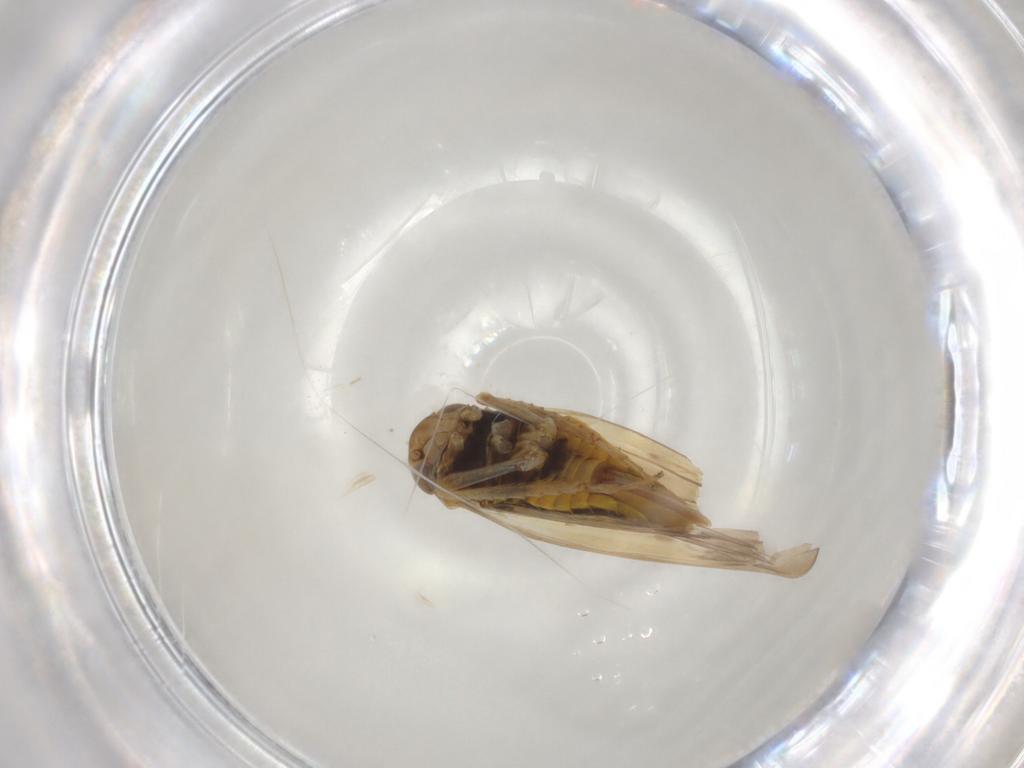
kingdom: Animalia
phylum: Arthropoda
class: Insecta
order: Hemiptera
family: Cicadellidae
